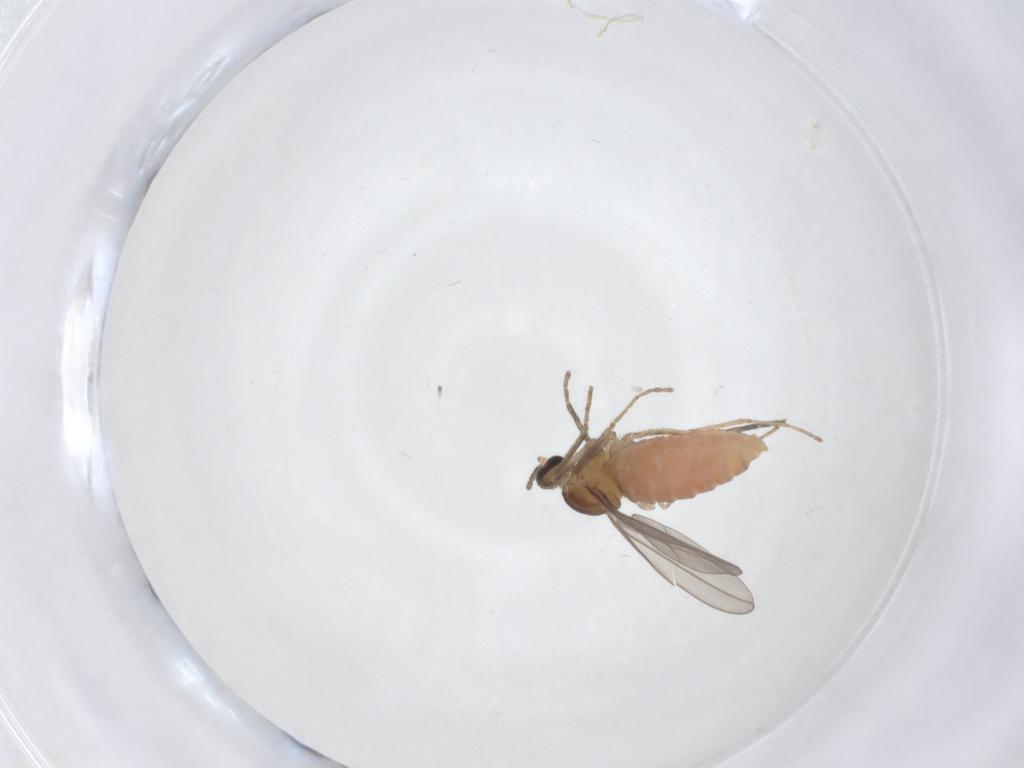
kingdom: Animalia
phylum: Arthropoda
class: Insecta
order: Diptera
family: Cecidomyiidae
